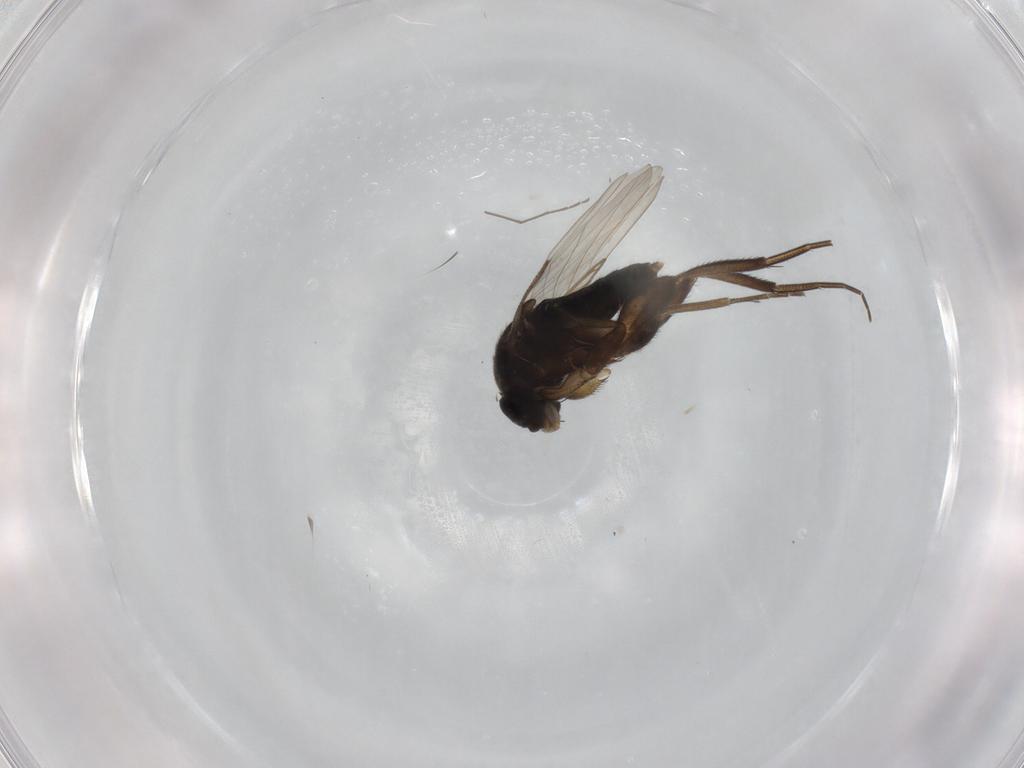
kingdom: Animalia
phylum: Arthropoda
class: Insecta
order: Diptera
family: Phoridae
